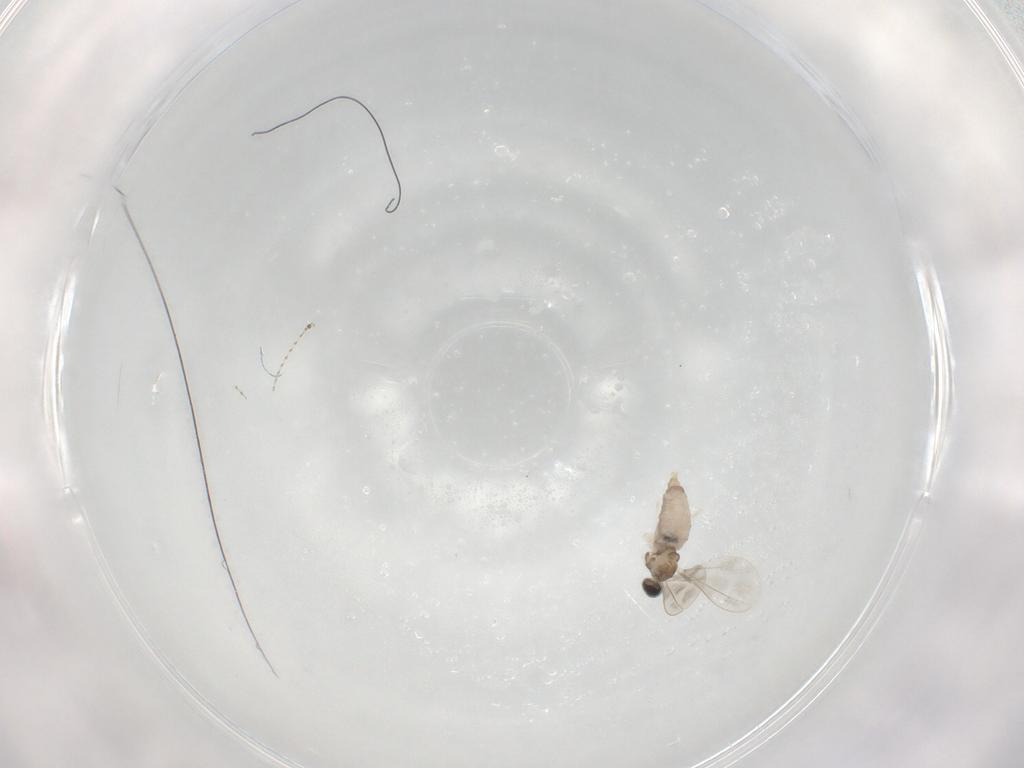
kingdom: Animalia
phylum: Arthropoda
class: Insecta
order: Diptera
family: Cecidomyiidae
